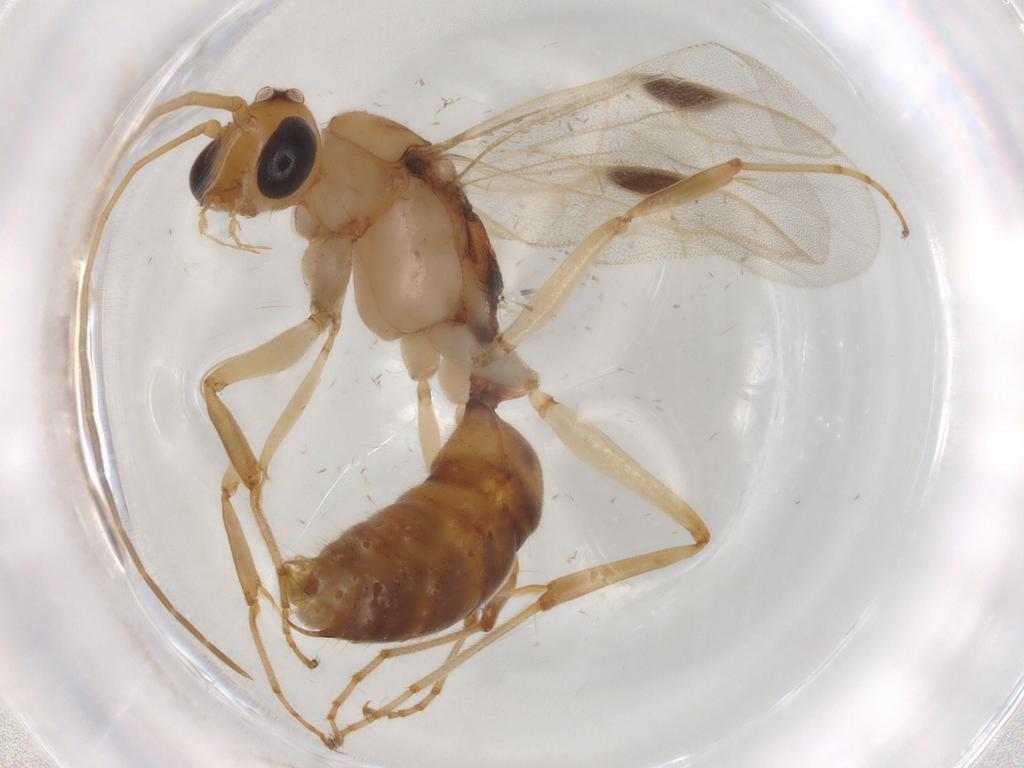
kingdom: Animalia
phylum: Arthropoda
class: Insecta
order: Hymenoptera
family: Formicidae
